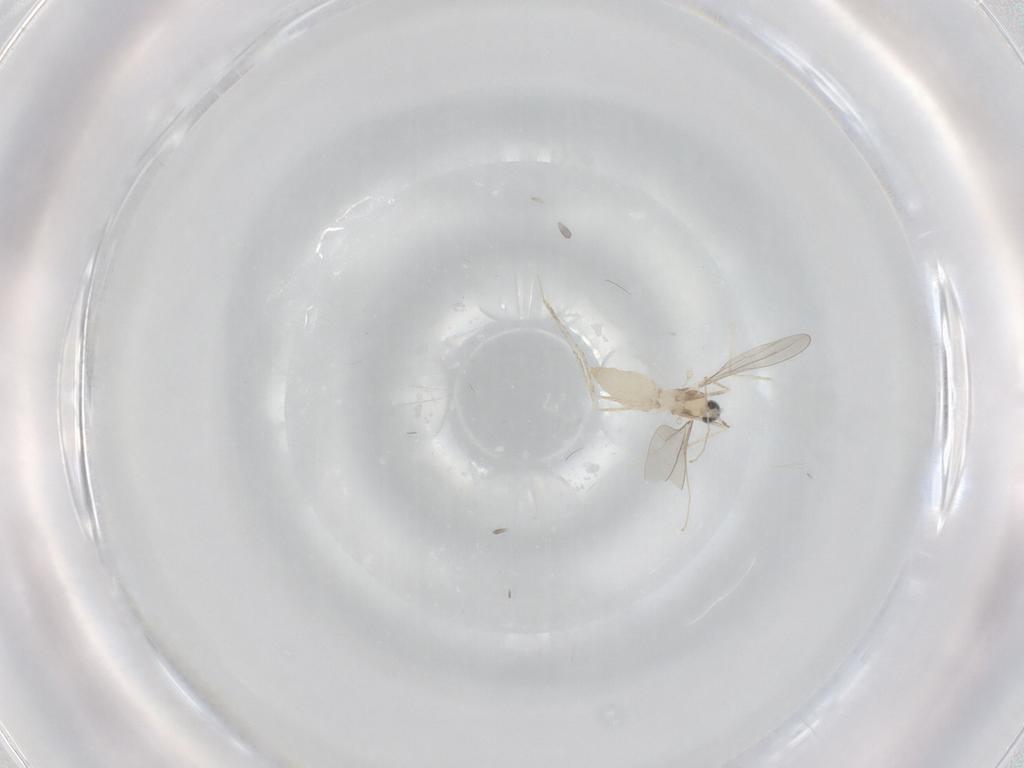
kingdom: Animalia
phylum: Arthropoda
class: Insecta
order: Diptera
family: Cecidomyiidae
